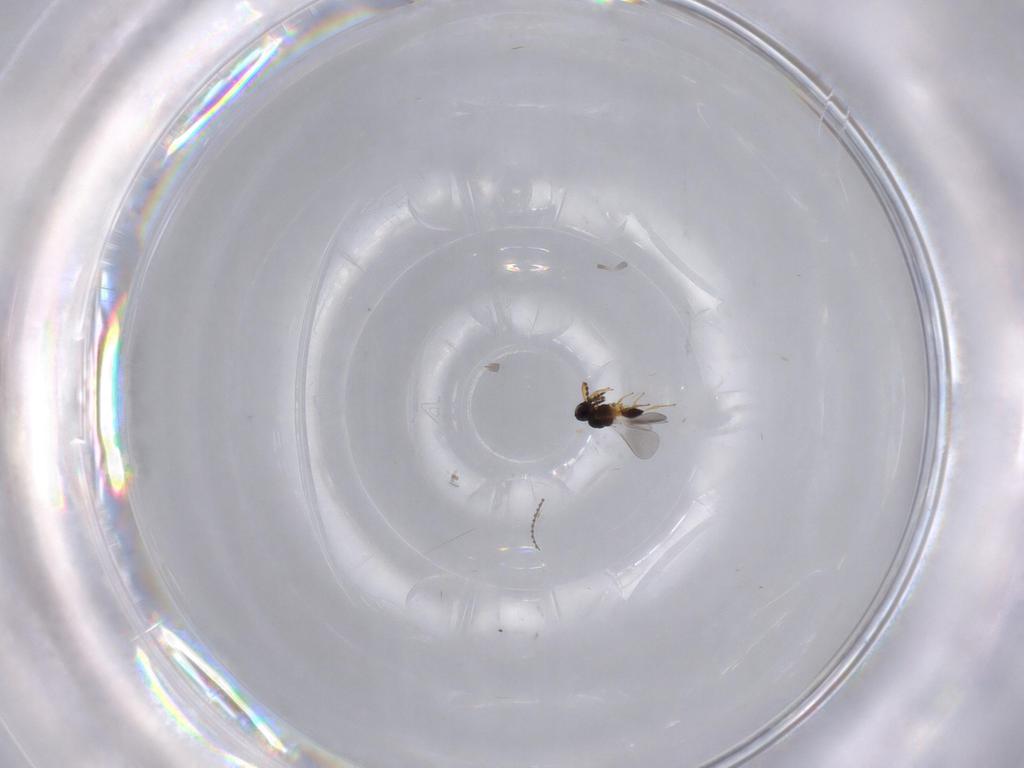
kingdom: Animalia
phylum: Arthropoda
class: Insecta
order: Hymenoptera
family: Platygastridae
